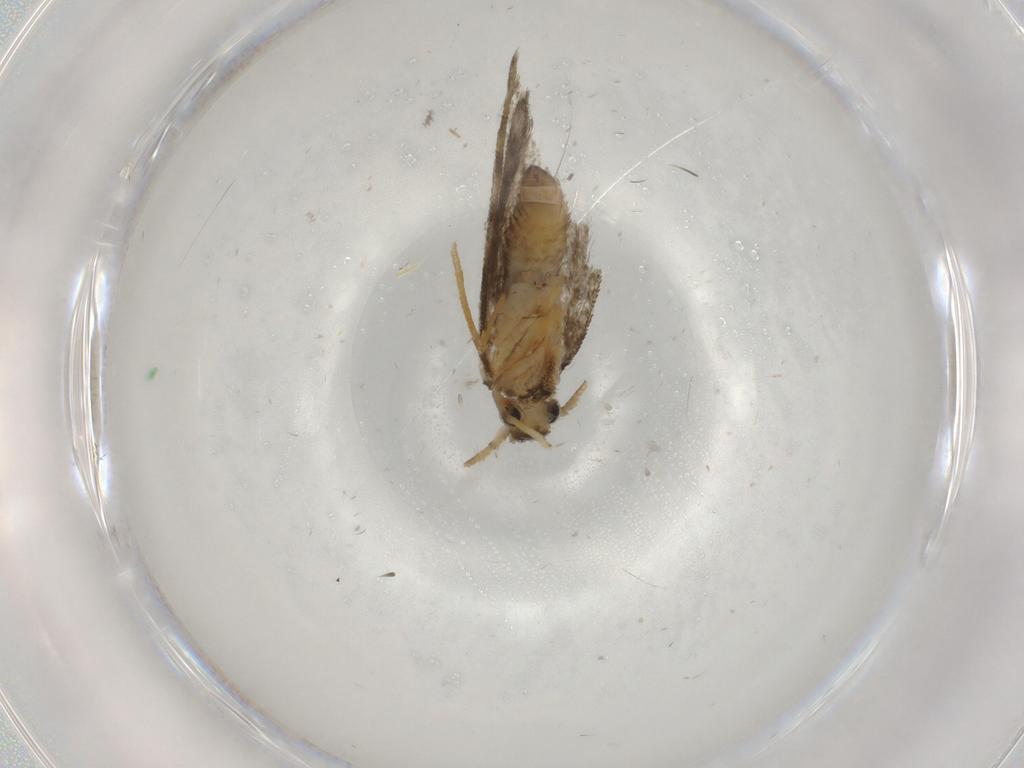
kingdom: Animalia
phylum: Arthropoda
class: Insecta
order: Lepidoptera
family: Psychidae
